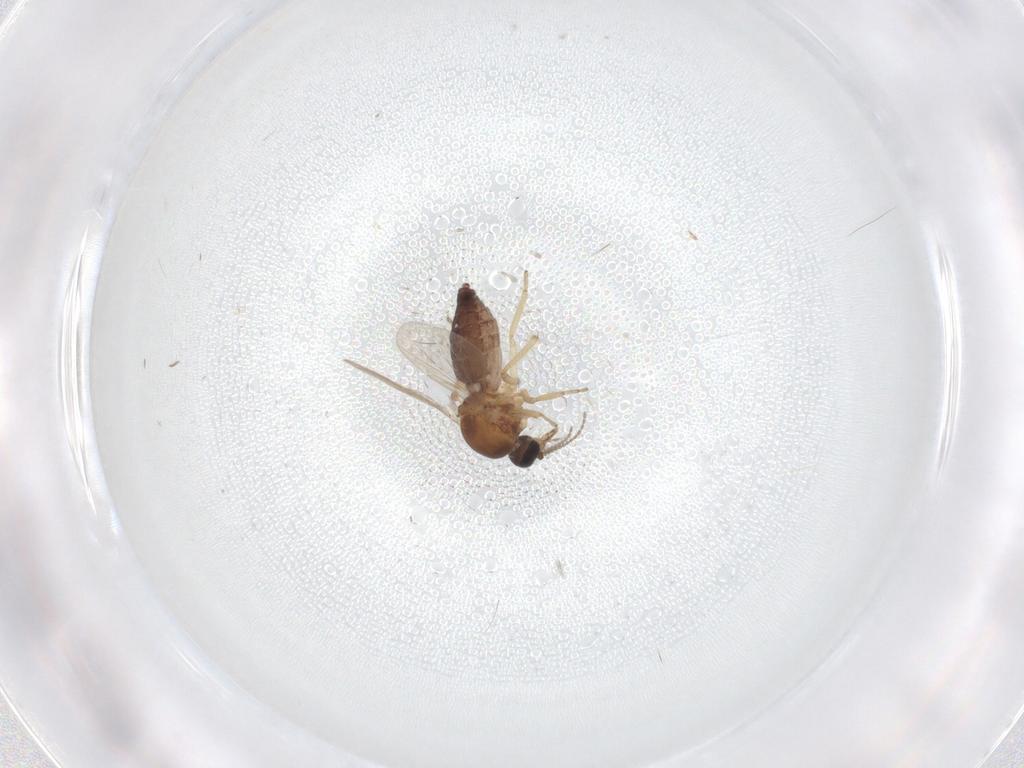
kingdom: Animalia
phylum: Arthropoda
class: Insecta
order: Diptera
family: Ceratopogonidae
